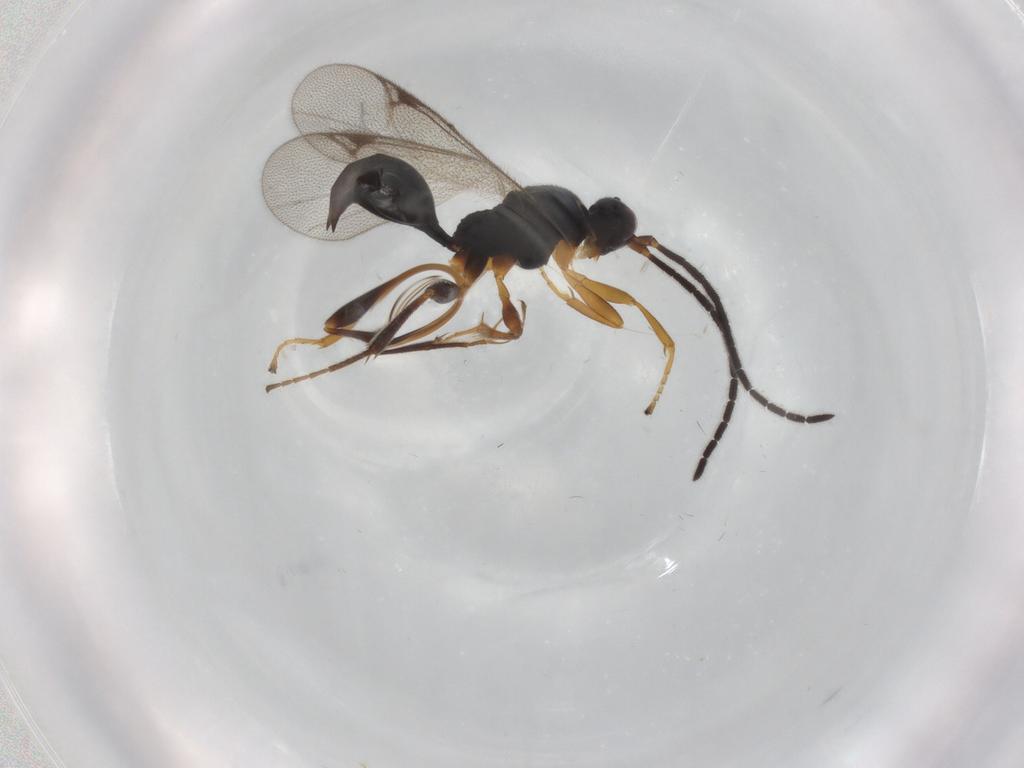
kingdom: Animalia
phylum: Arthropoda
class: Insecta
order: Hymenoptera
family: Proctotrupidae
